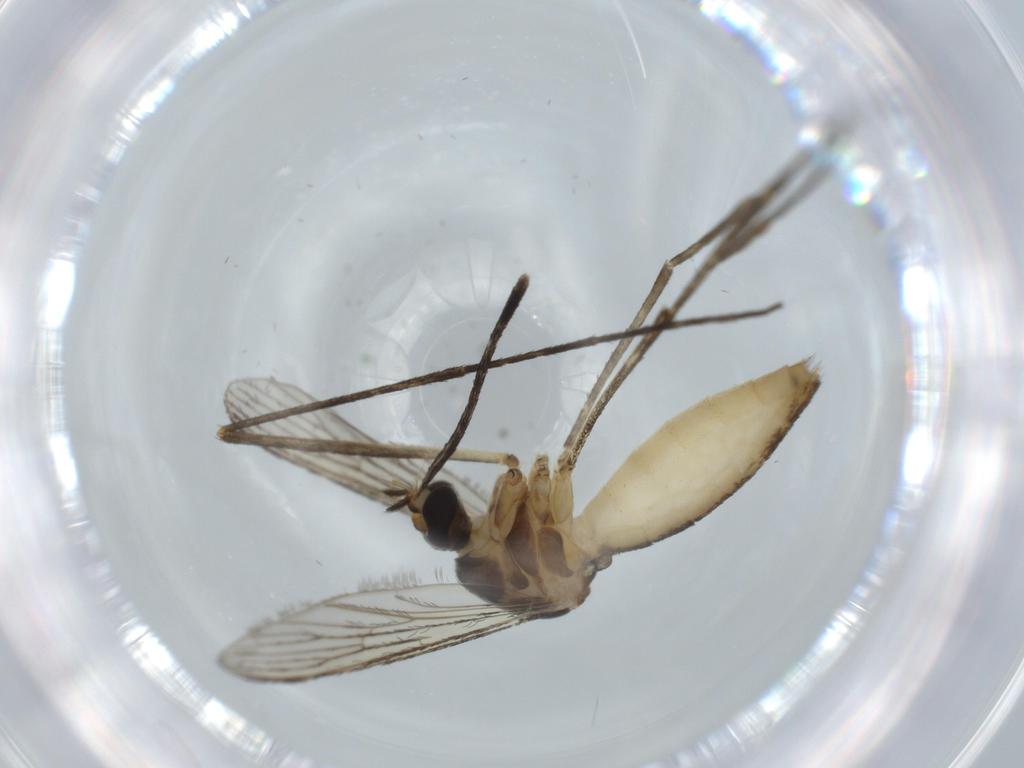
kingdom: Animalia
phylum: Arthropoda
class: Insecta
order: Diptera
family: Culicidae
